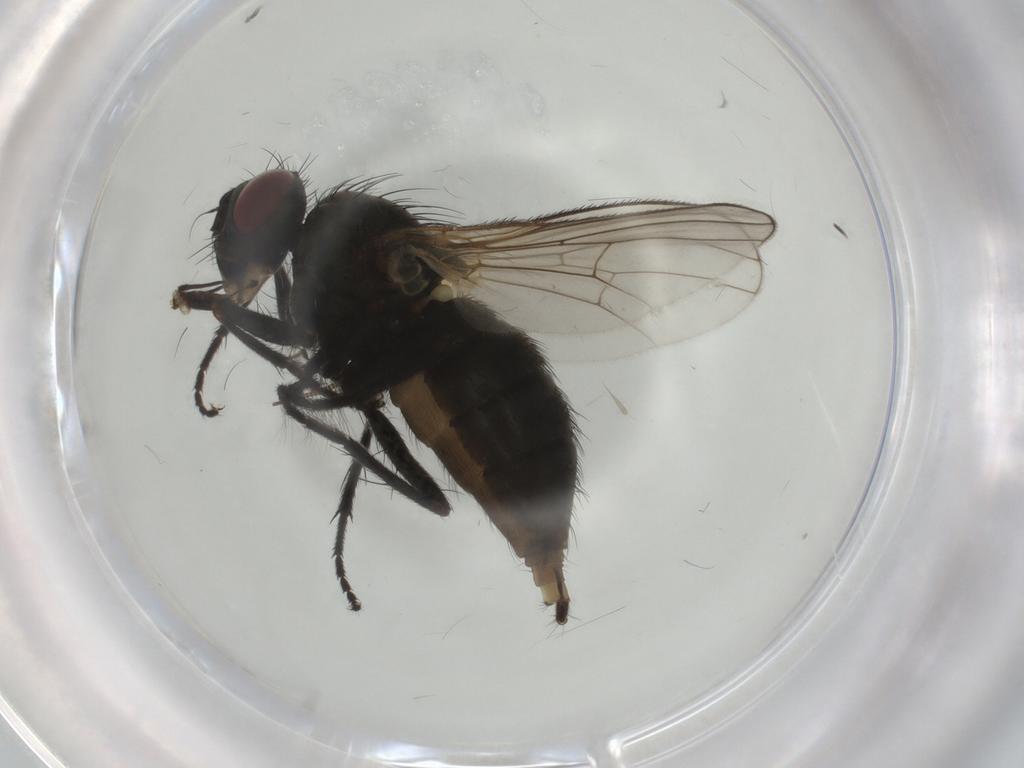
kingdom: Animalia
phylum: Arthropoda
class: Insecta
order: Diptera
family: Muscidae
